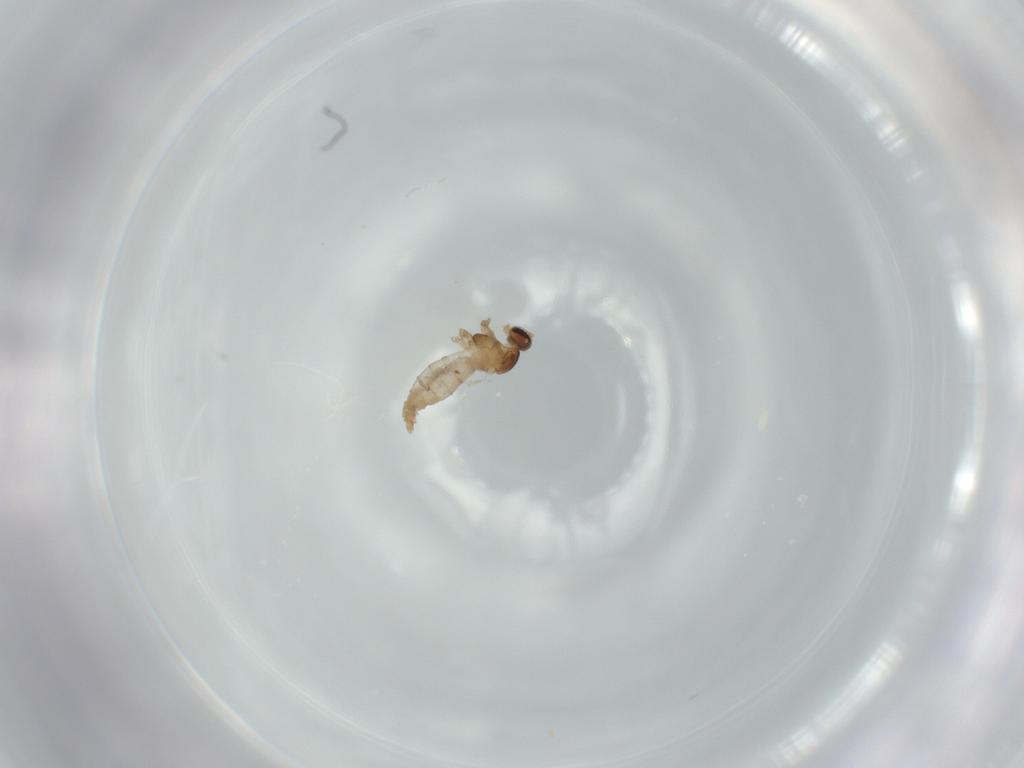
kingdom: Animalia
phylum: Arthropoda
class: Insecta
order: Diptera
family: Cecidomyiidae
